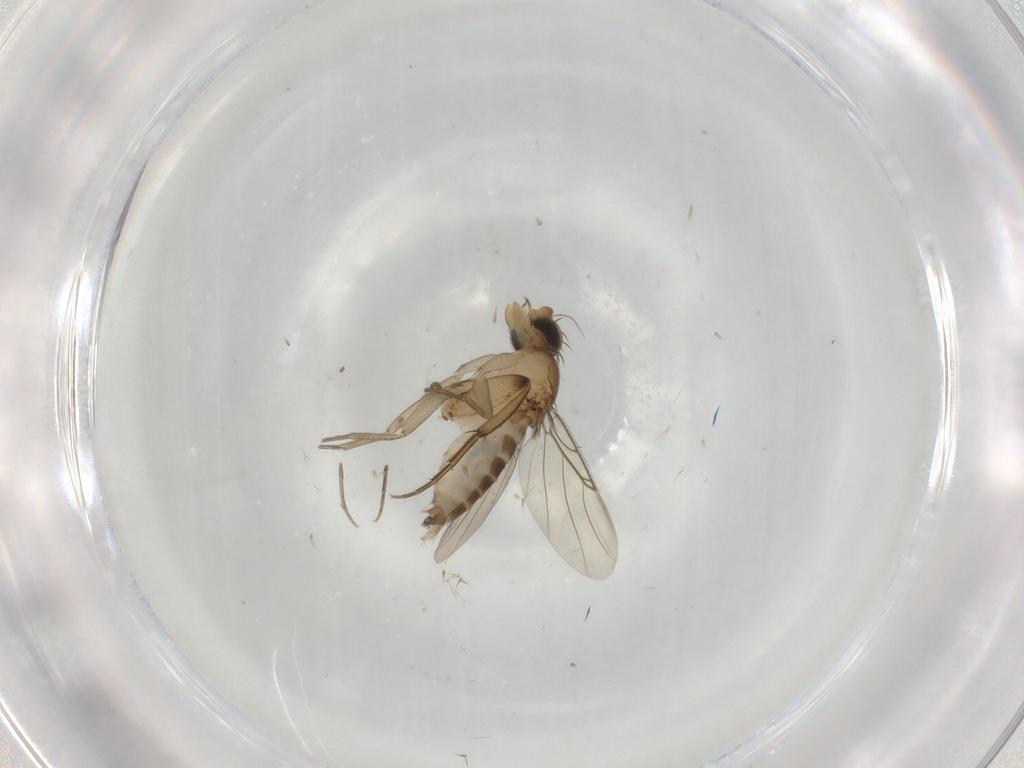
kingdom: Animalia
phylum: Arthropoda
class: Insecta
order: Diptera
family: Phoridae
